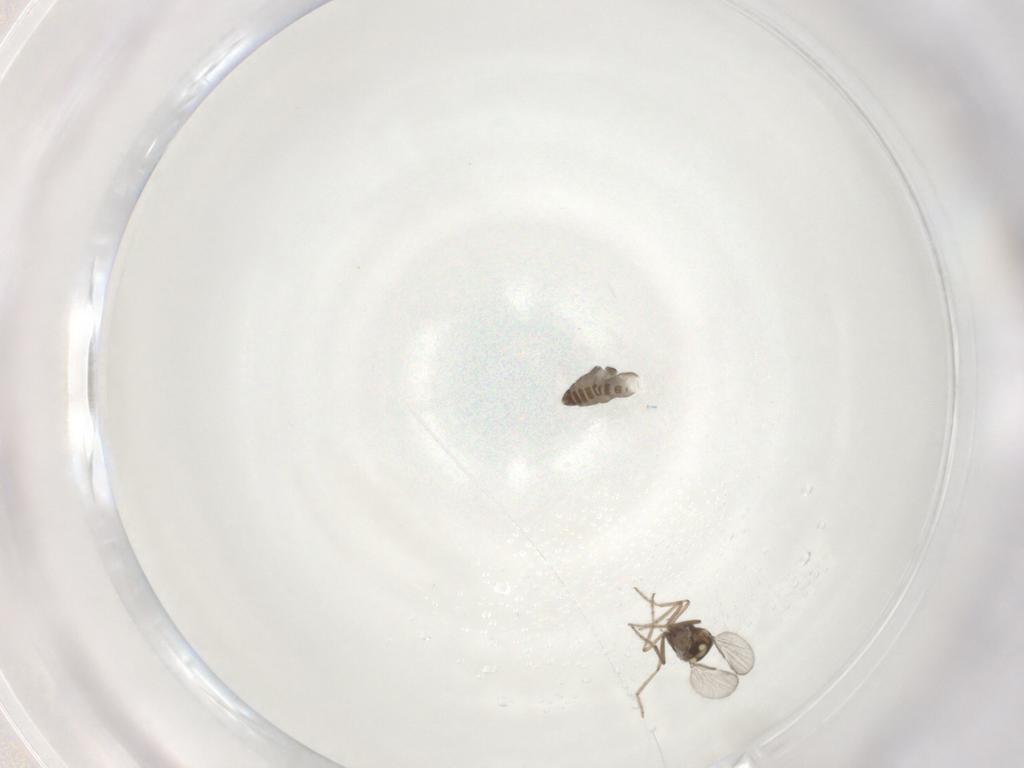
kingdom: Animalia
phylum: Arthropoda
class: Insecta
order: Diptera
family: Ceratopogonidae
